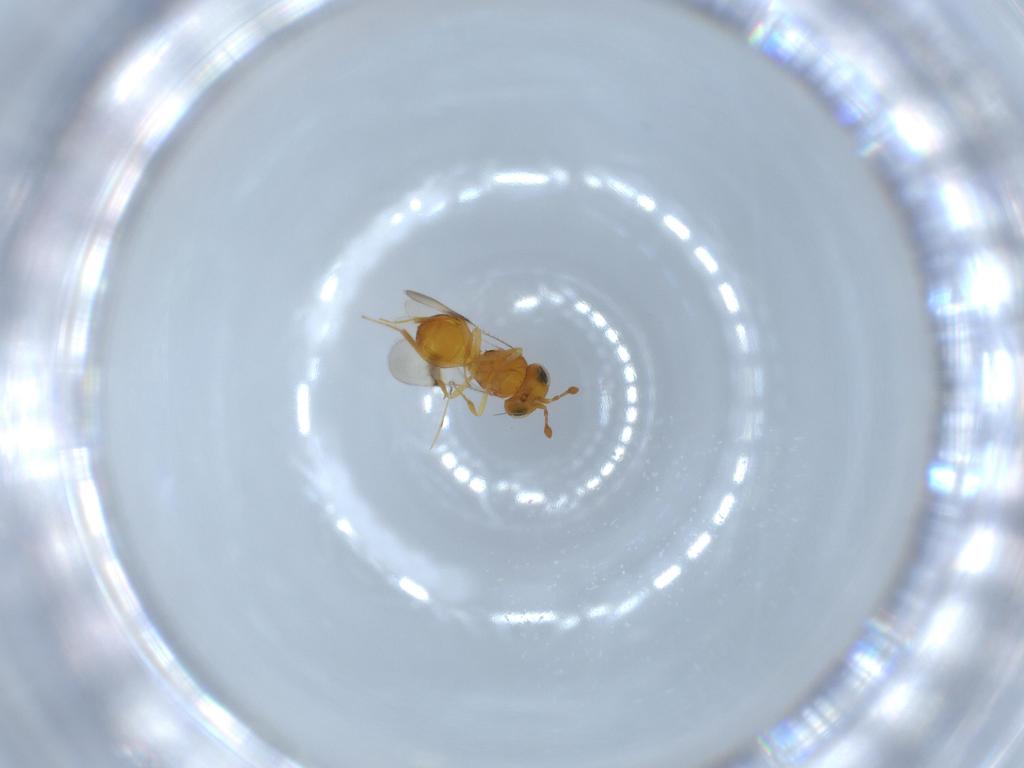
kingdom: Animalia
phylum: Arthropoda
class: Insecta
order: Hymenoptera
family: Scelionidae
